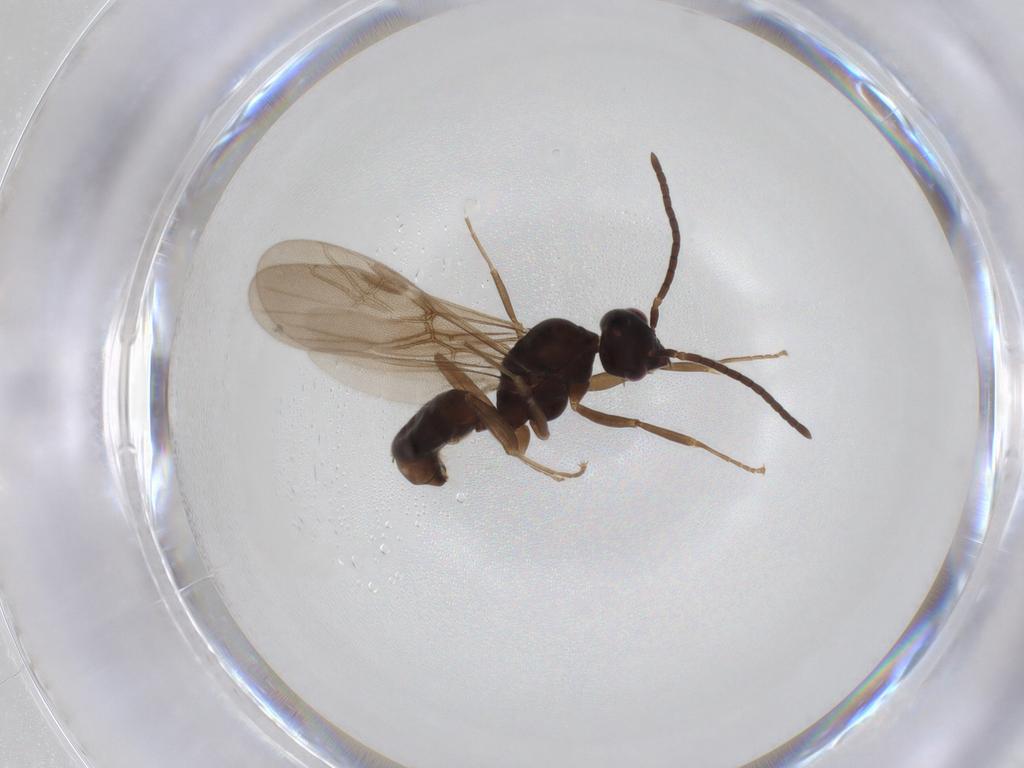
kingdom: Animalia
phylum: Arthropoda
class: Insecta
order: Hymenoptera
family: Formicidae
